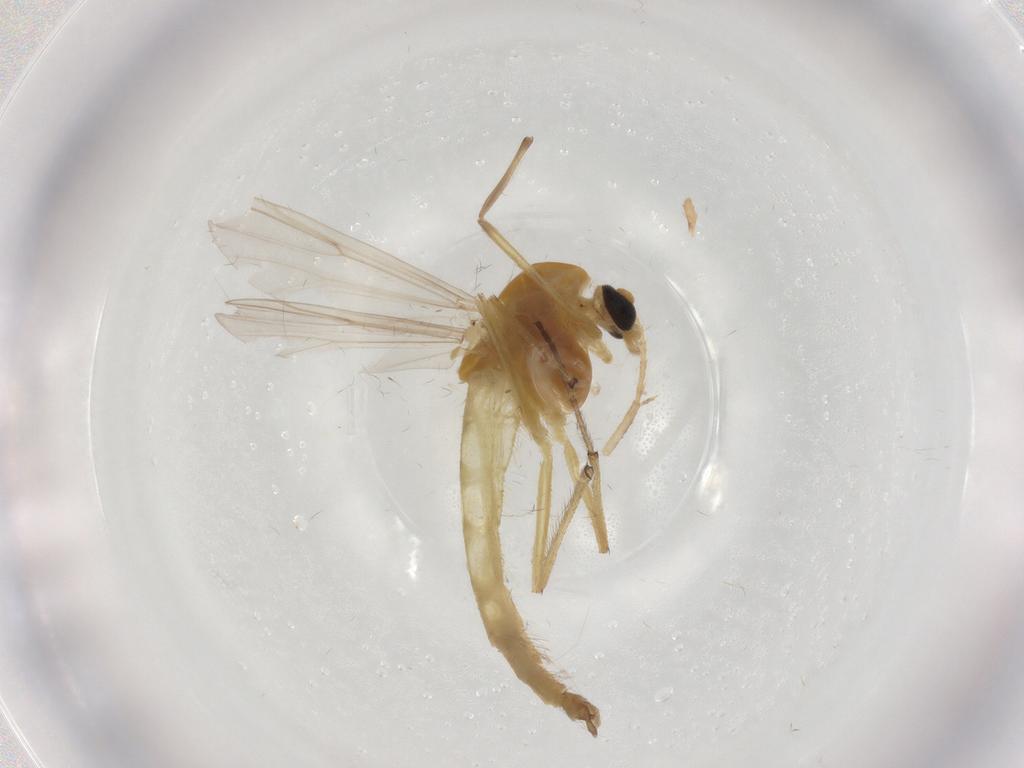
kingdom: Animalia
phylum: Arthropoda
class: Insecta
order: Diptera
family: Chironomidae
